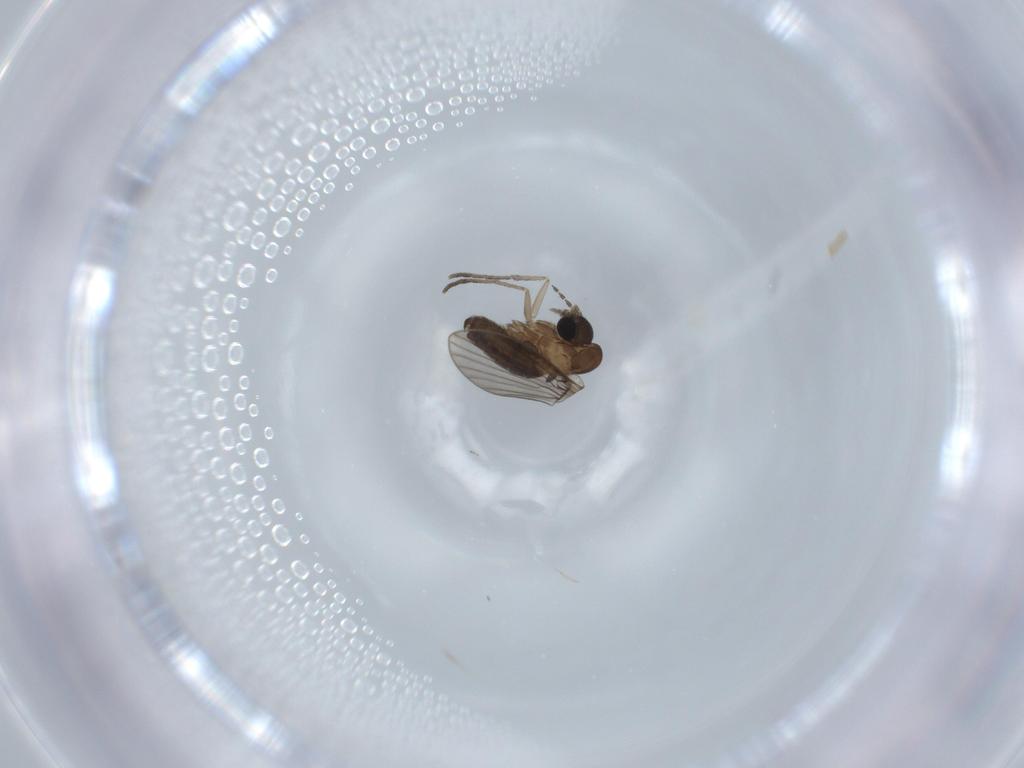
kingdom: Animalia
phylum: Arthropoda
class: Insecta
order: Diptera
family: Psychodidae
